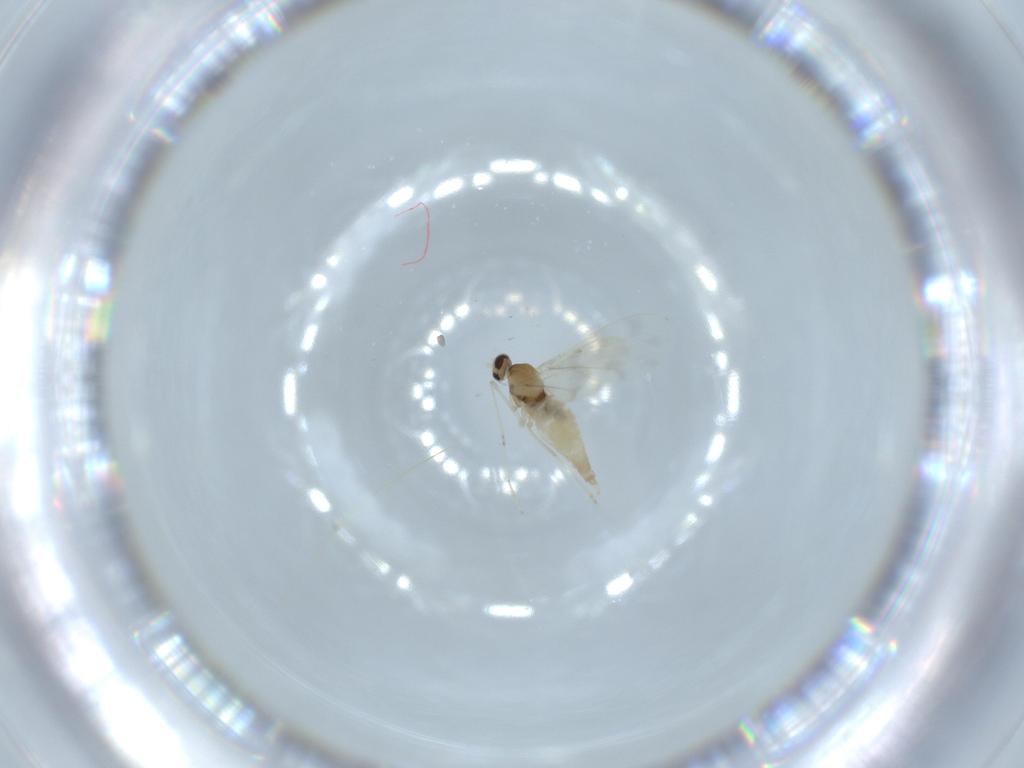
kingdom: Animalia
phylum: Arthropoda
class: Insecta
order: Diptera
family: Cecidomyiidae
